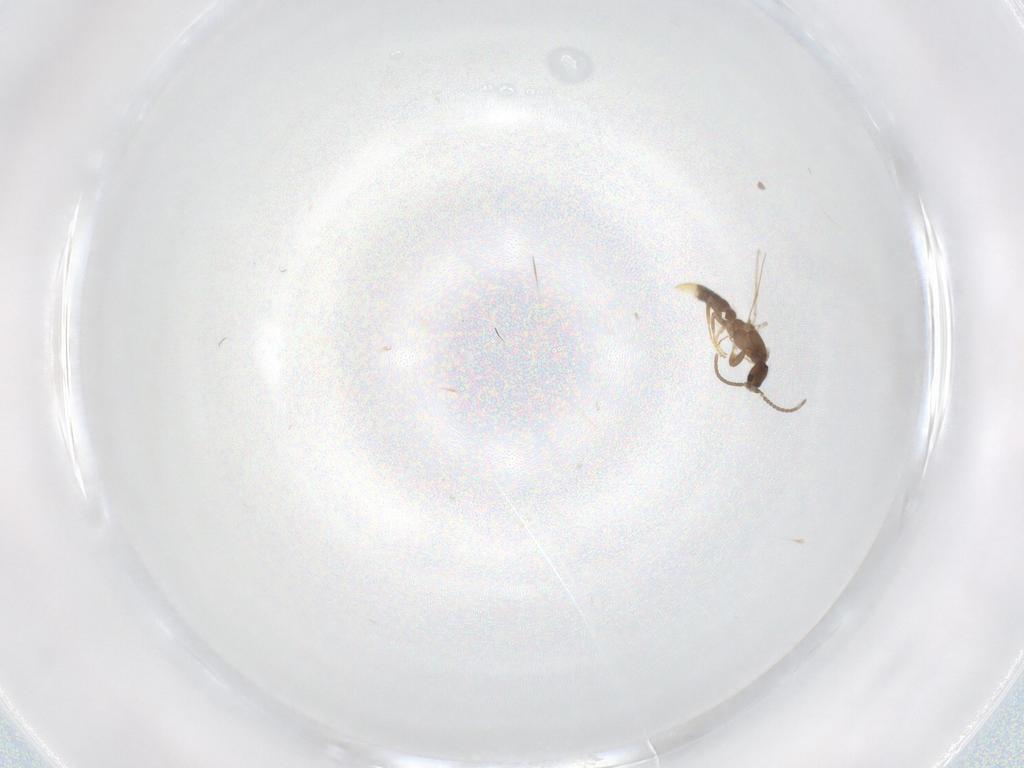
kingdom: Animalia
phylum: Arthropoda
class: Insecta
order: Hymenoptera
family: Formicidae
